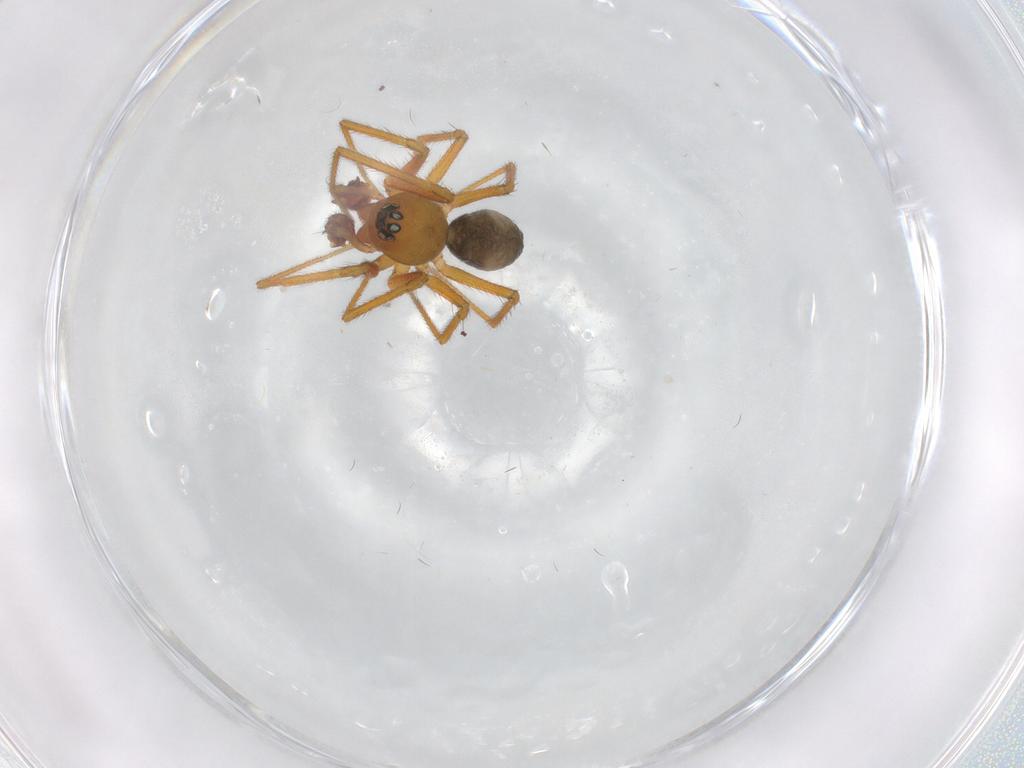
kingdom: Animalia
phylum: Arthropoda
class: Arachnida
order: Araneae
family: Linyphiidae
